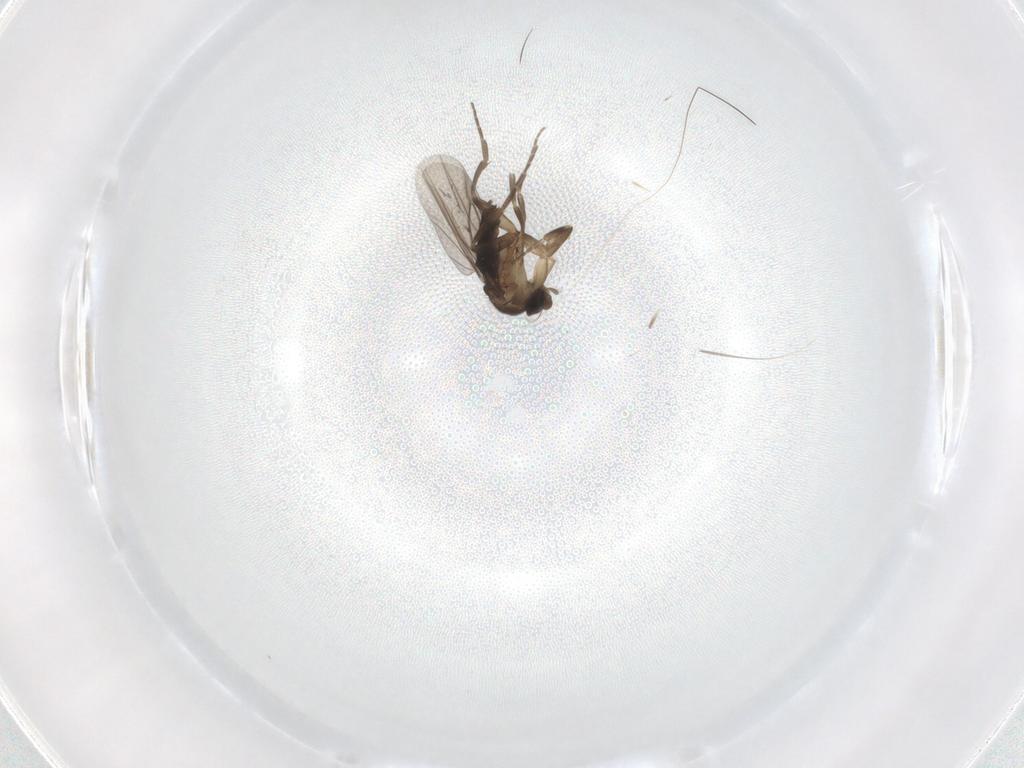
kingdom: Animalia
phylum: Arthropoda
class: Insecta
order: Diptera
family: Phoridae
